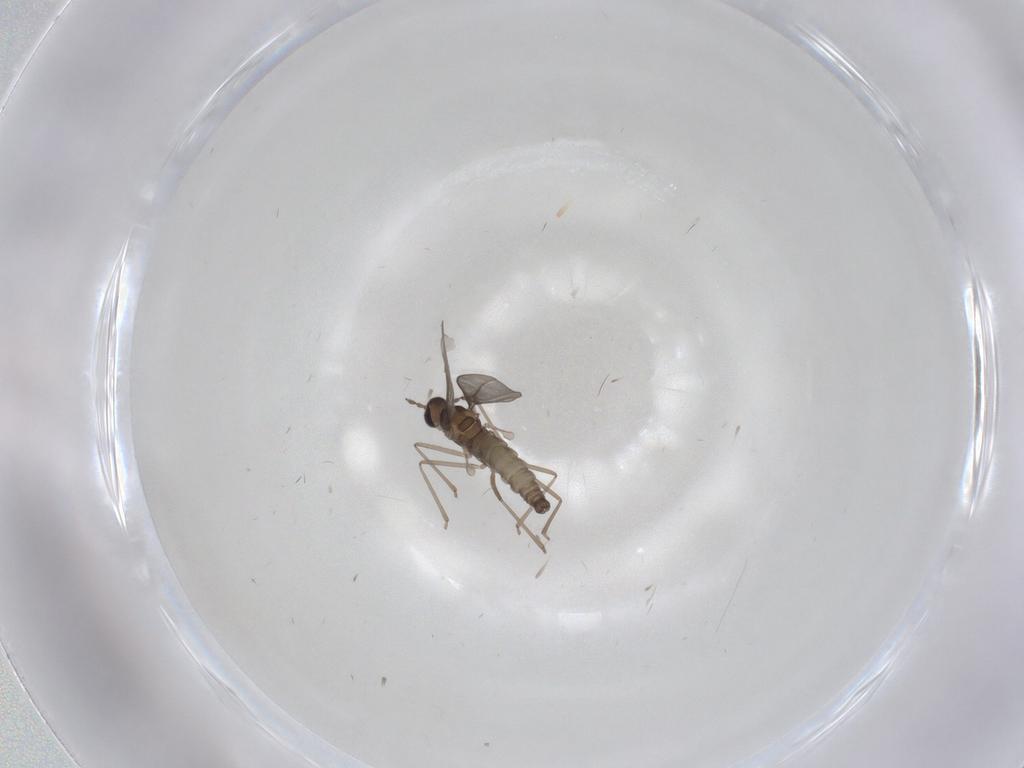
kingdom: Animalia
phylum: Arthropoda
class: Insecta
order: Diptera
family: Cecidomyiidae
